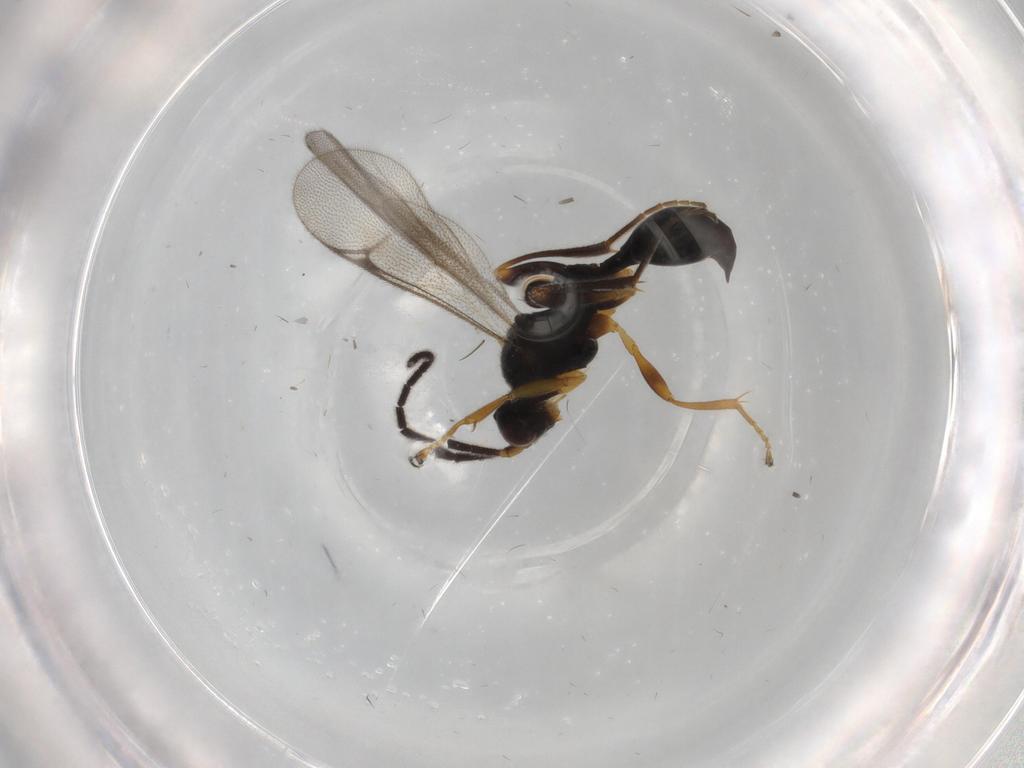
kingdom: Animalia
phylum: Arthropoda
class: Insecta
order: Hymenoptera
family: Proctotrupidae
